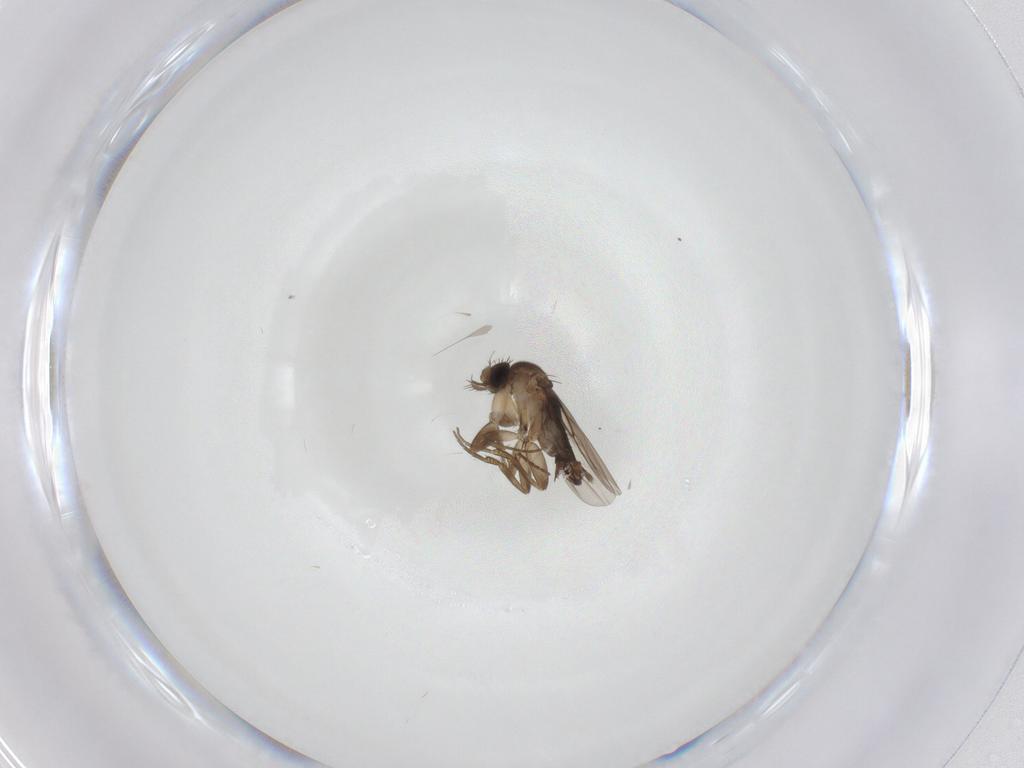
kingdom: Animalia
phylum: Arthropoda
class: Insecta
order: Diptera
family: Phoridae
